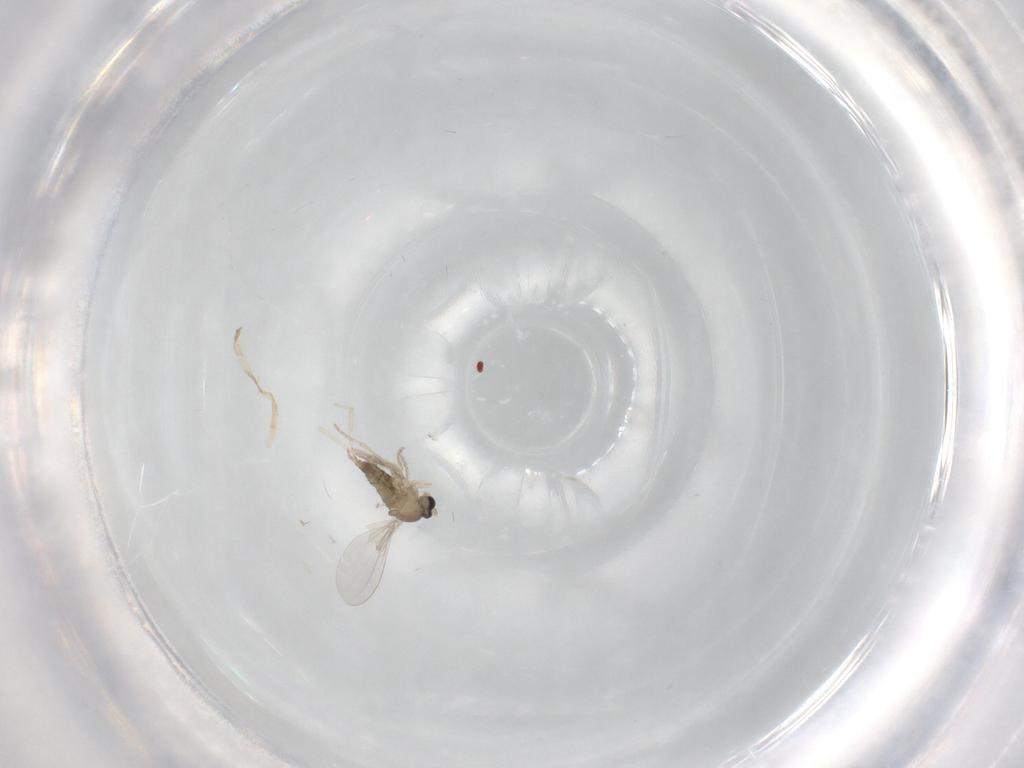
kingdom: Animalia
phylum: Arthropoda
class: Insecta
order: Diptera
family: Cecidomyiidae
